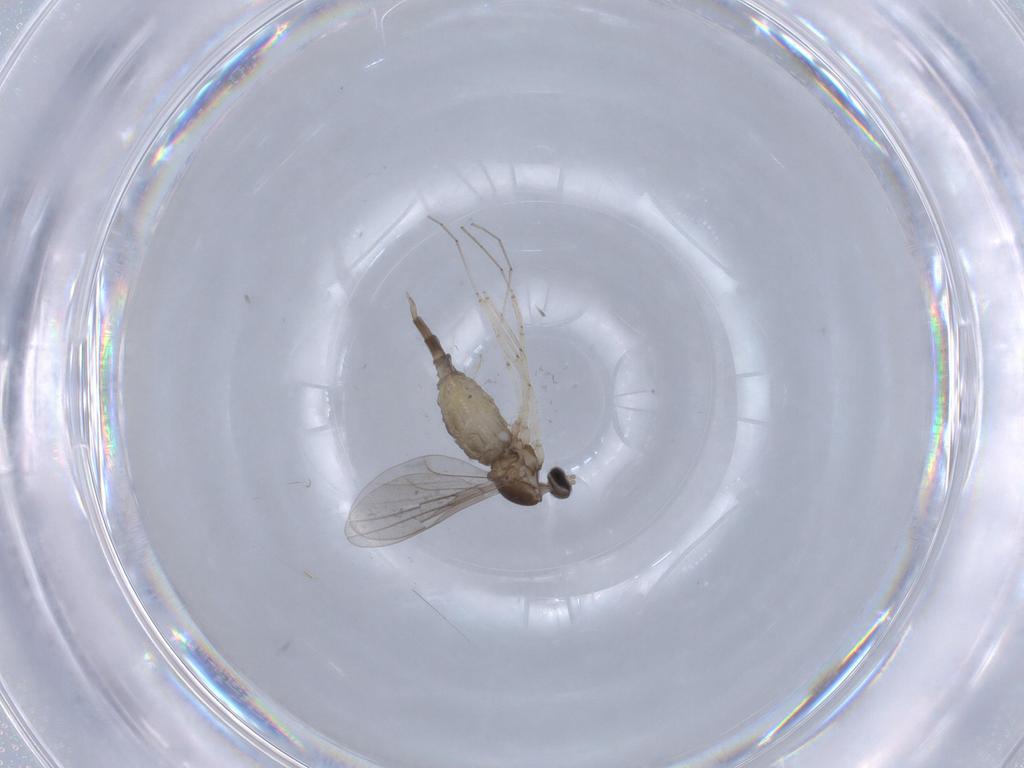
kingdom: Animalia
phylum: Arthropoda
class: Insecta
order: Diptera
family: Cecidomyiidae
